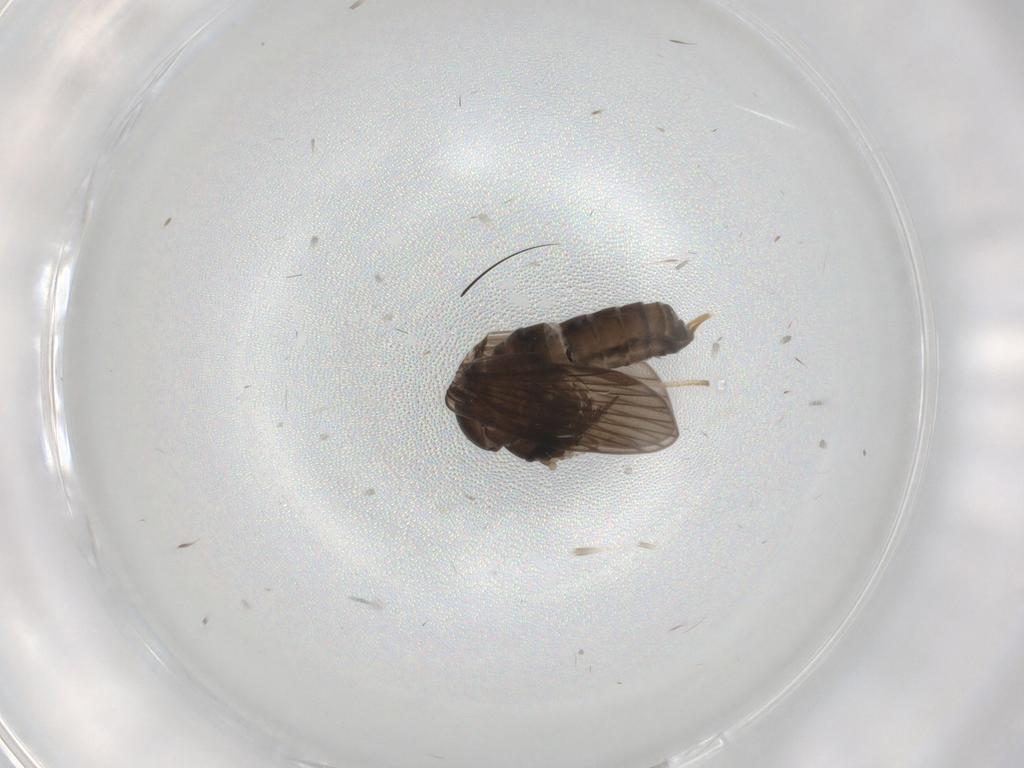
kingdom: Animalia
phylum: Arthropoda
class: Insecta
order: Diptera
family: Psychodidae
